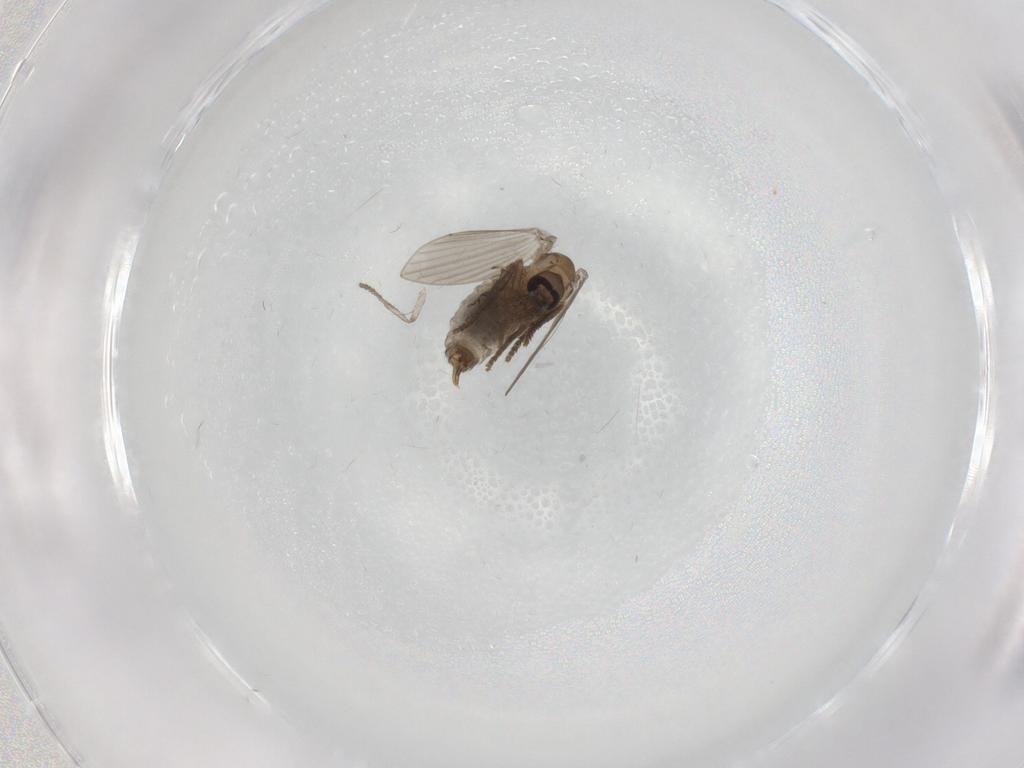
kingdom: Animalia
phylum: Arthropoda
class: Insecta
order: Diptera
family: Psychodidae
